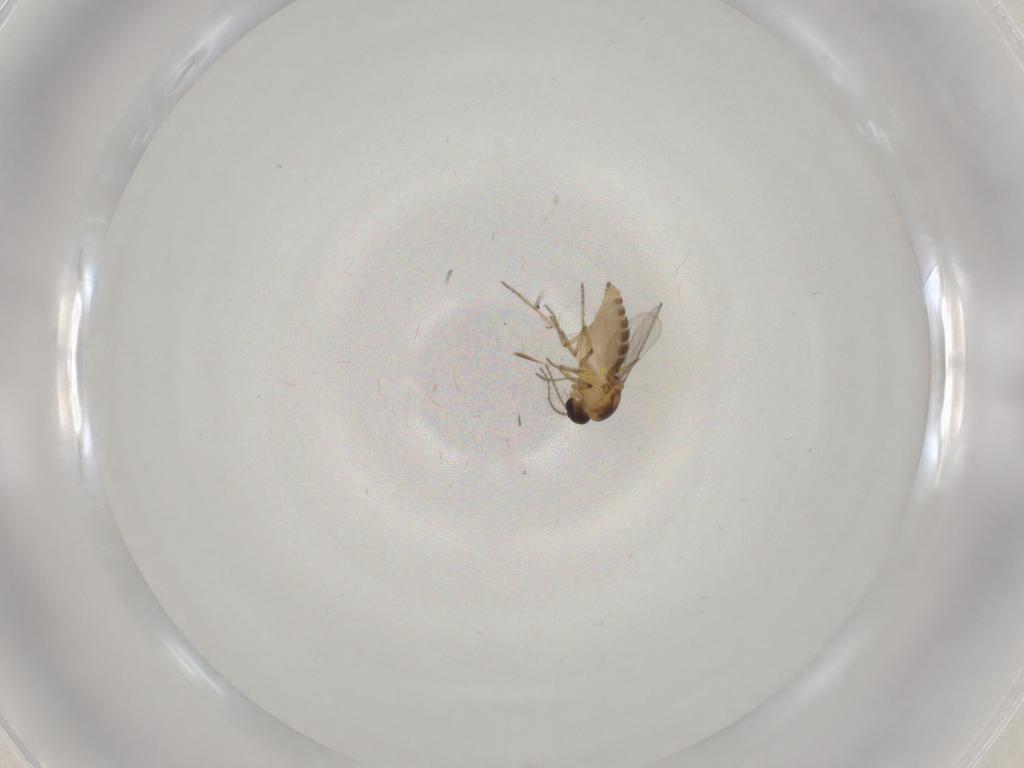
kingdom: Animalia
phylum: Arthropoda
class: Insecta
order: Diptera
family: Ceratopogonidae
